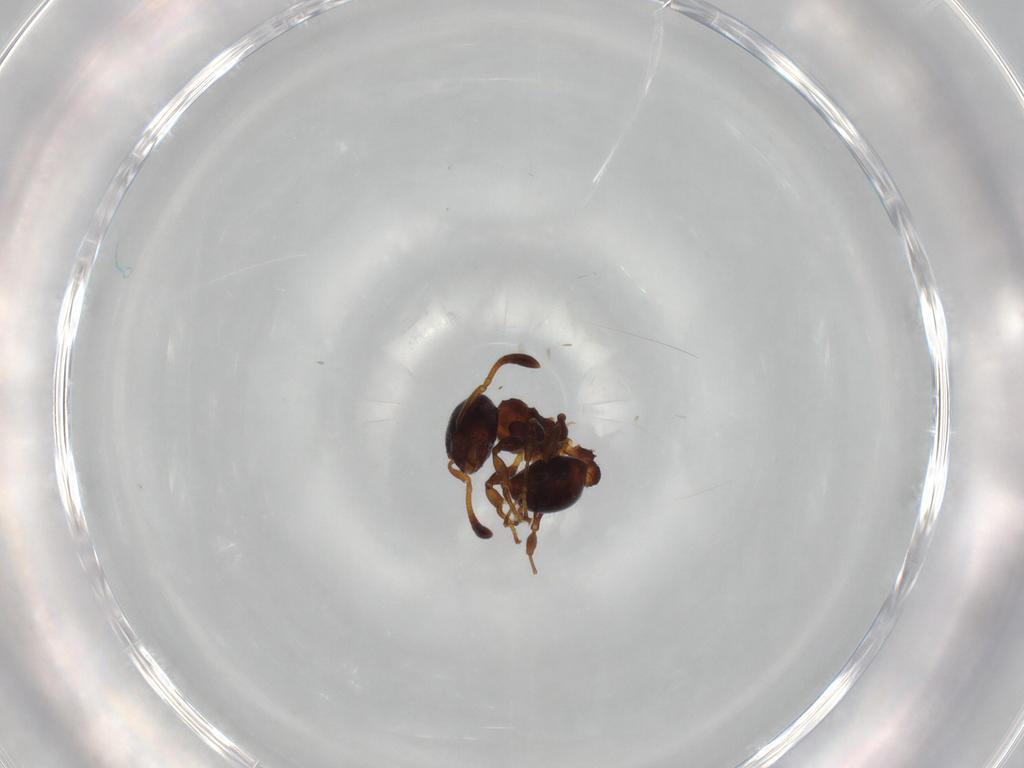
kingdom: Animalia
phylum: Arthropoda
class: Insecta
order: Hymenoptera
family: Formicidae
